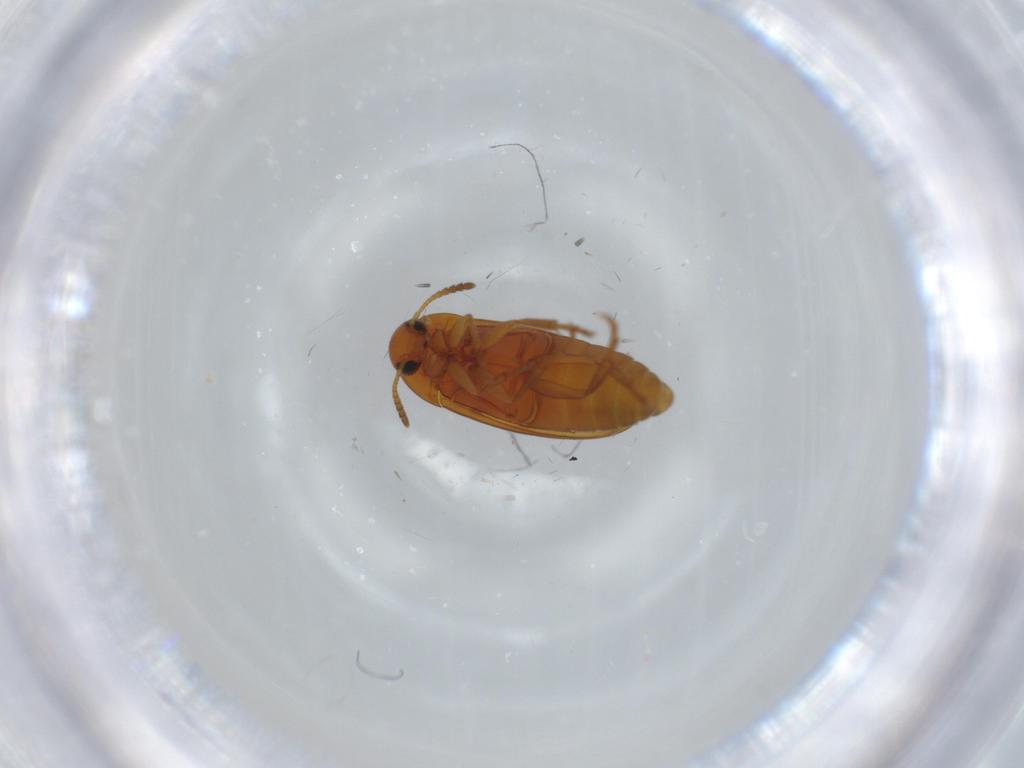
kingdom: Animalia
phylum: Arthropoda
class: Insecta
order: Coleoptera
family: Scraptiidae
